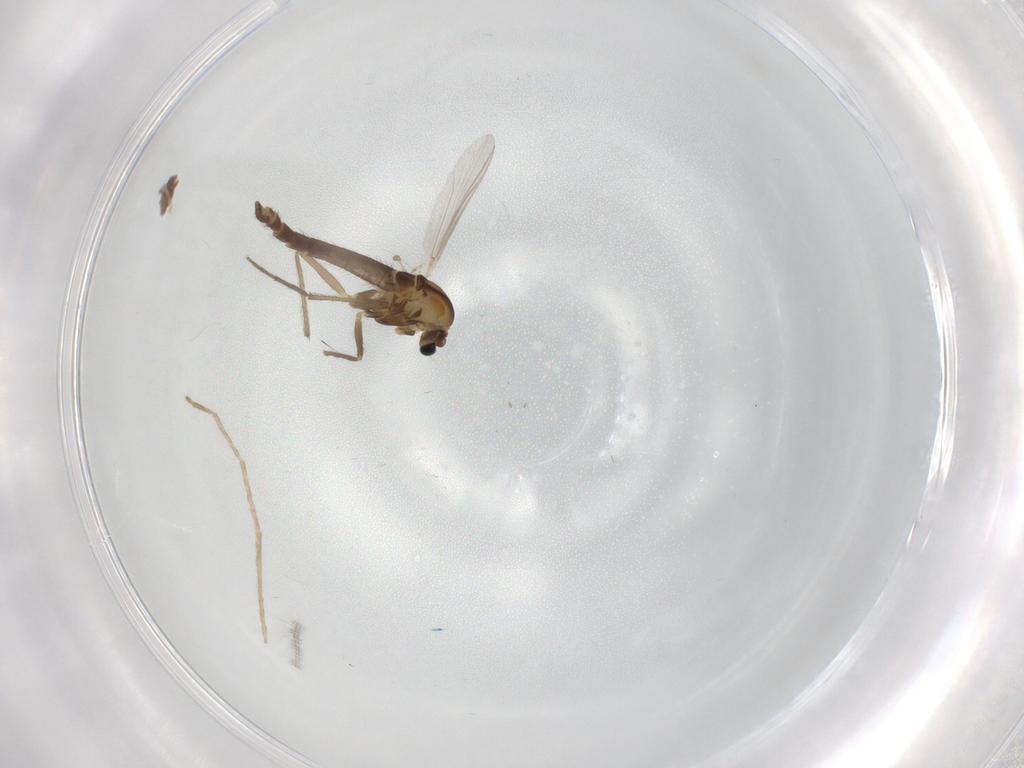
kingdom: Animalia
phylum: Arthropoda
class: Insecta
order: Diptera
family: Chironomidae
